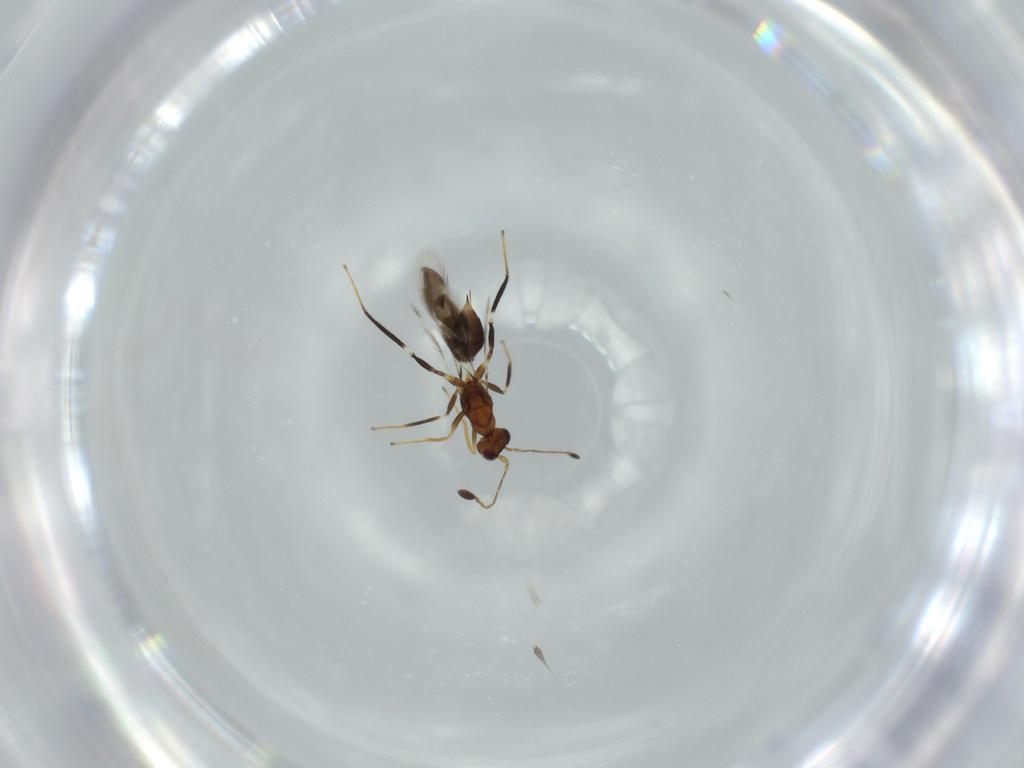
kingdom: Animalia
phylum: Arthropoda
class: Insecta
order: Hymenoptera
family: Mymaridae
